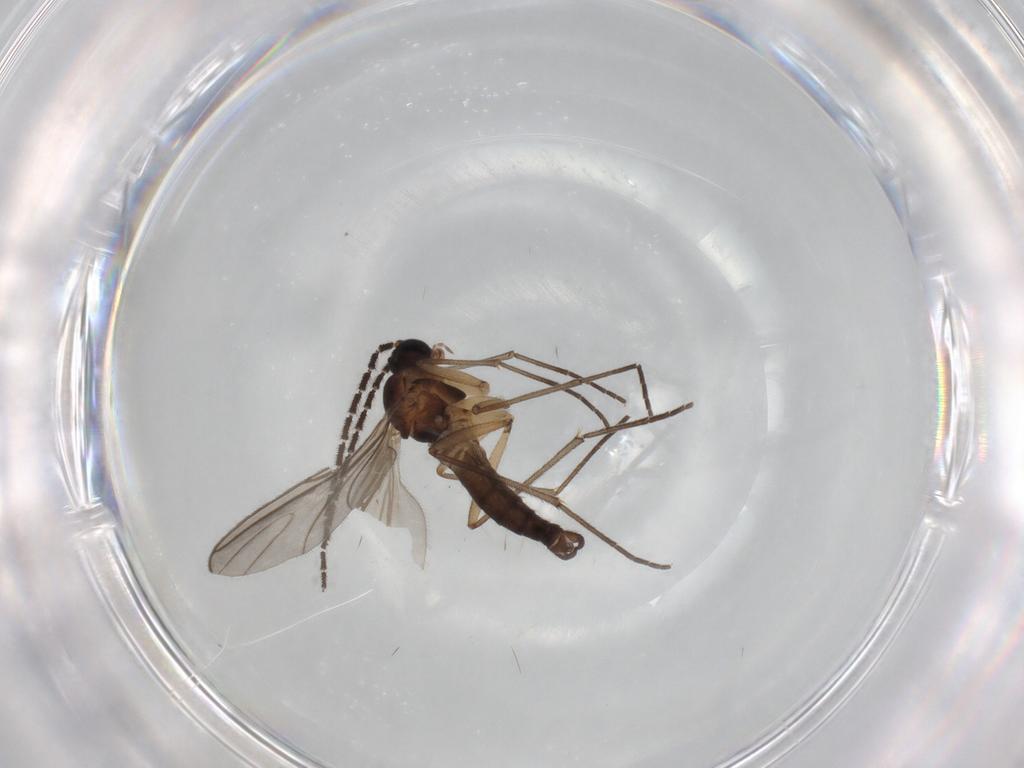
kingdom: Animalia
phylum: Arthropoda
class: Insecta
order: Diptera
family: Sciaridae
